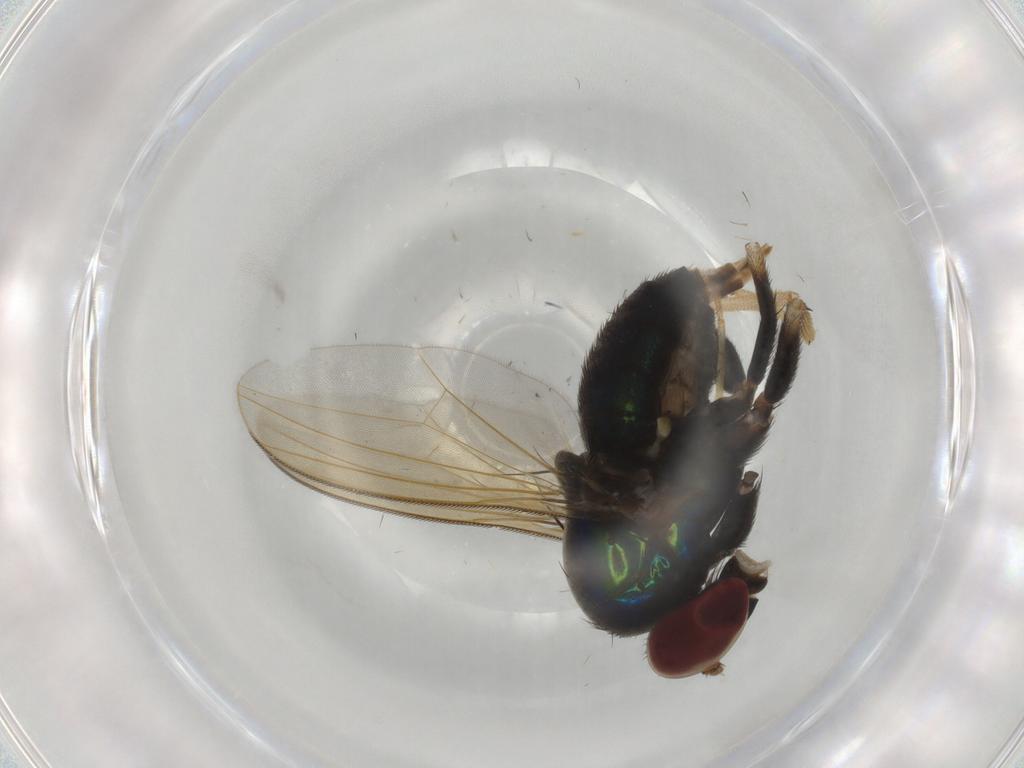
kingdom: Animalia
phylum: Arthropoda
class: Insecta
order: Diptera
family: Dolichopodidae
